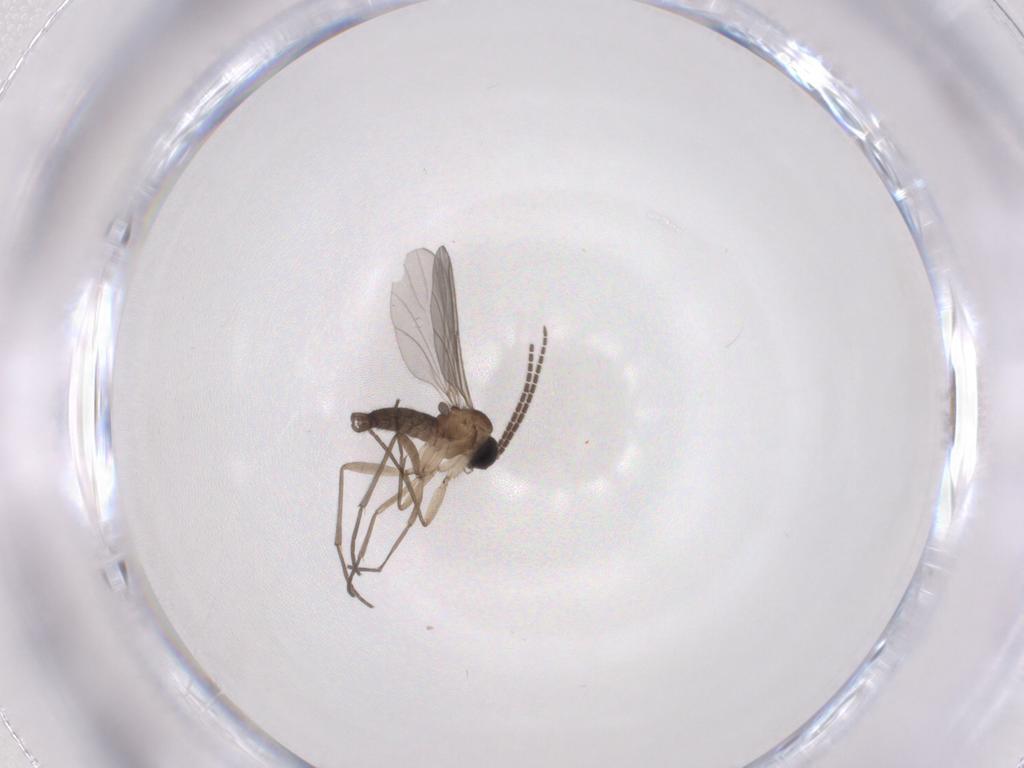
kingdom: Animalia
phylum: Arthropoda
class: Insecta
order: Diptera
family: Sciaridae
